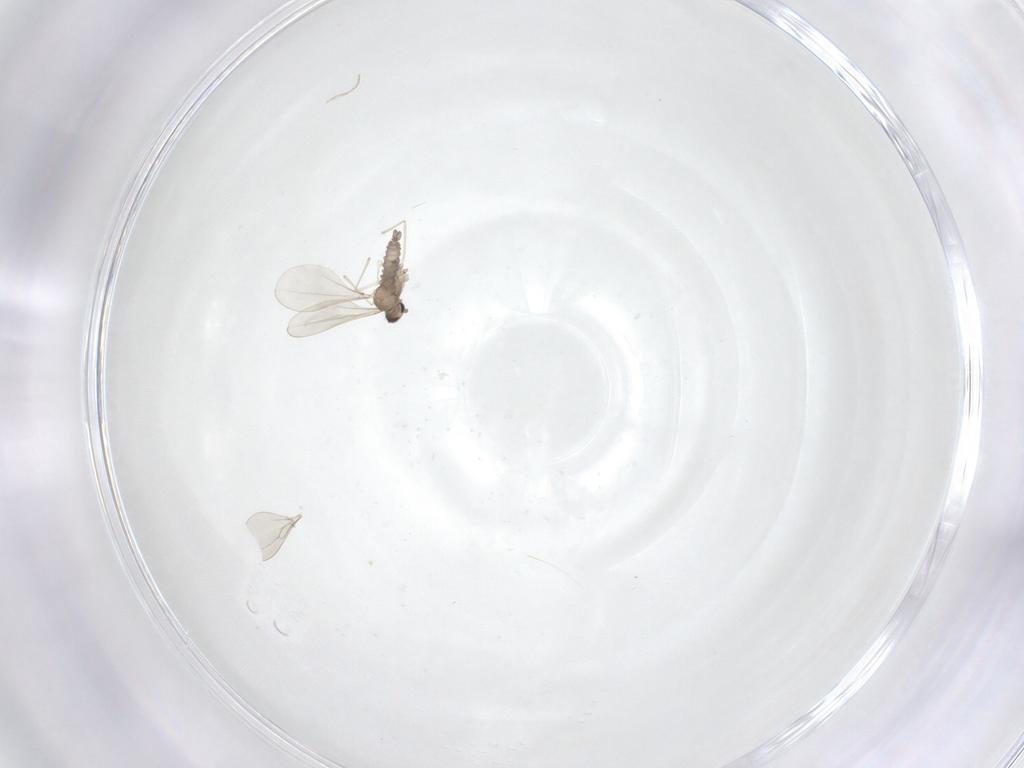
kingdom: Animalia
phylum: Arthropoda
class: Insecta
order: Diptera
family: Cecidomyiidae
